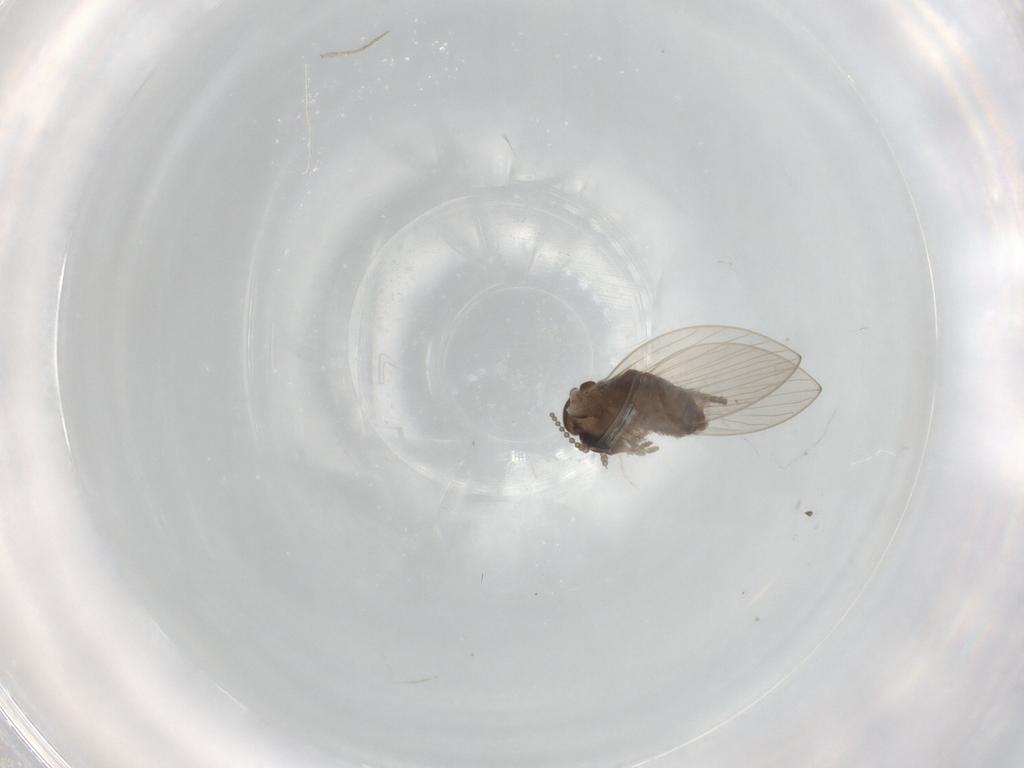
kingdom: Animalia
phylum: Arthropoda
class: Insecta
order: Diptera
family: Psychodidae
